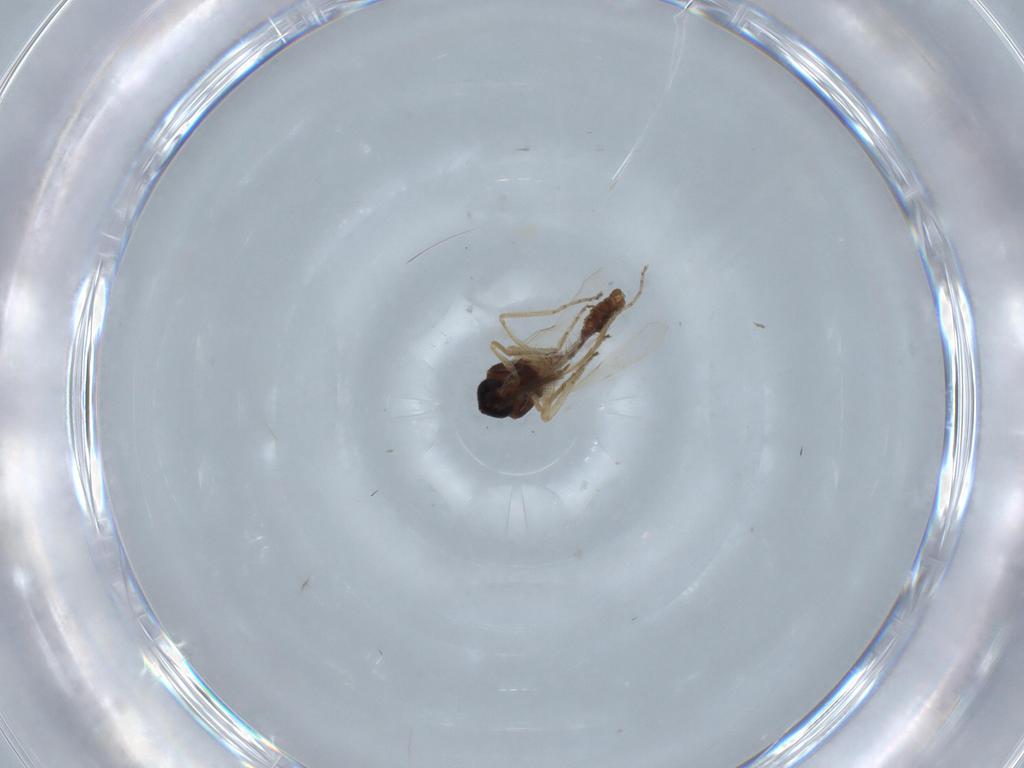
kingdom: Animalia
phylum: Arthropoda
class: Insecta
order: Diptera
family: Ceratopogonidae
